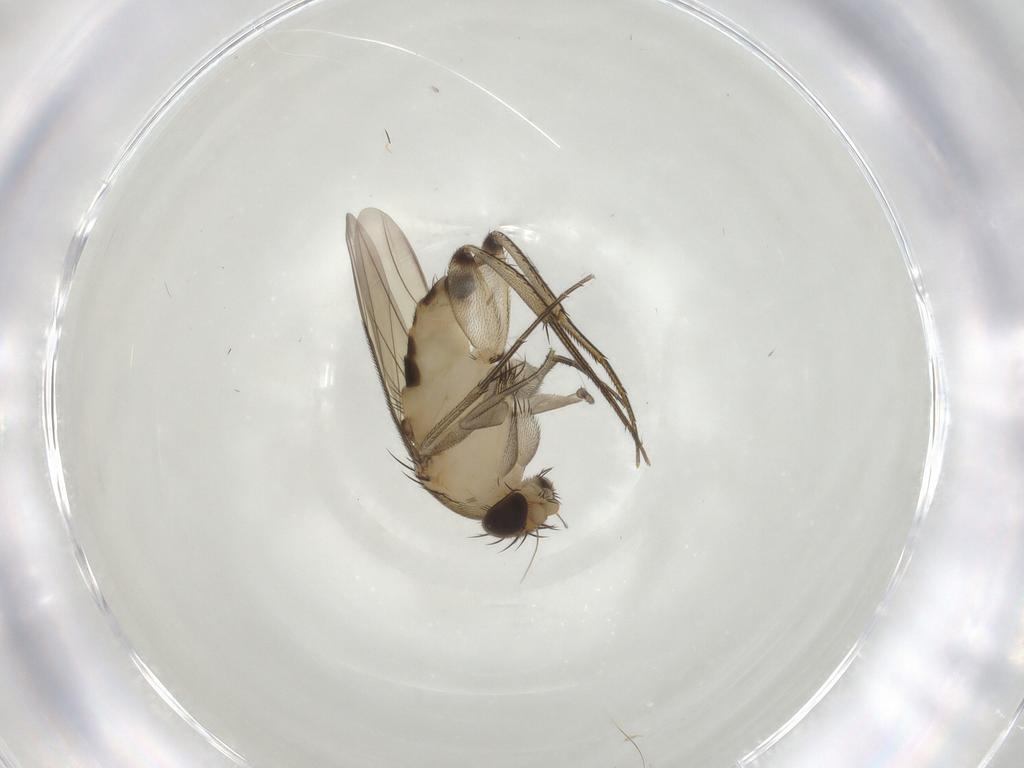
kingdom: Animalia
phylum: Arthropoda
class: Insecta
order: Diptera
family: Phoridae
